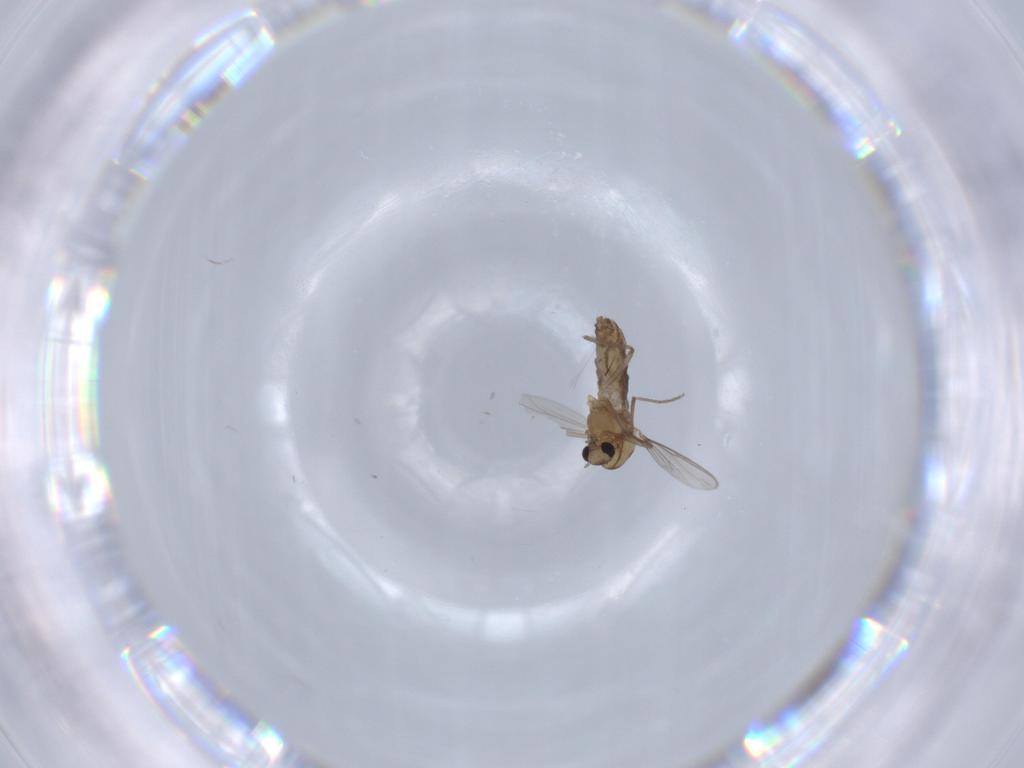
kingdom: Animalia
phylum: Arthropoda
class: Insecta
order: Diptera
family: Chironomidae
